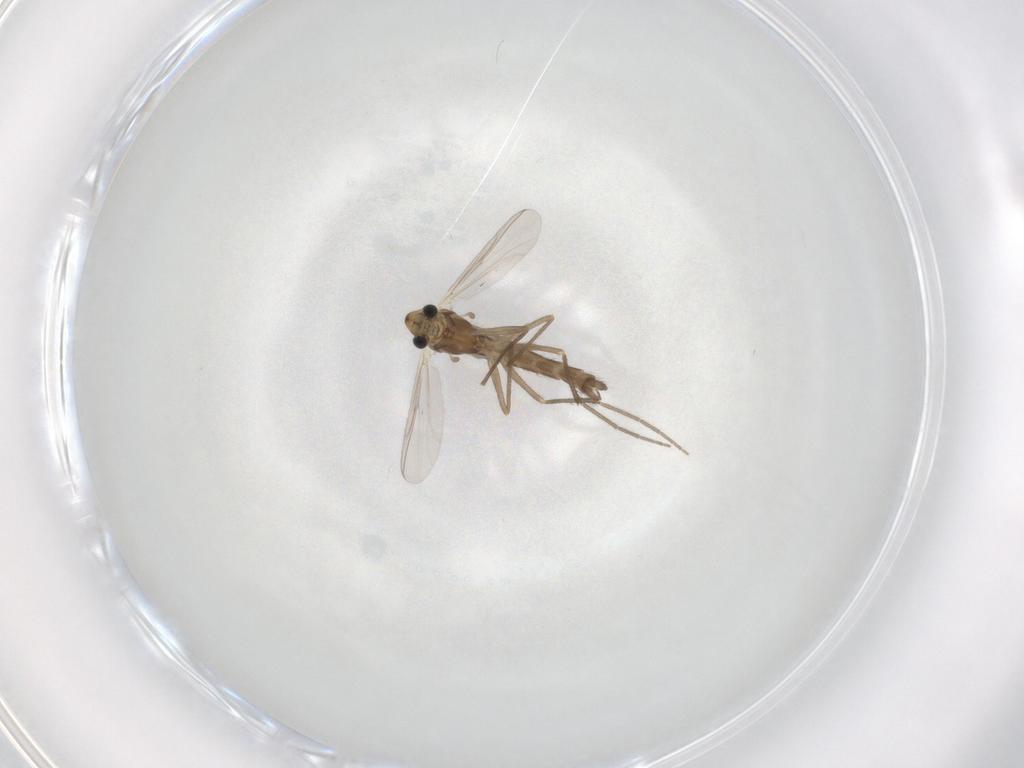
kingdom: Animalia
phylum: Arthropoda
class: Insecta
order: Diptera
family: Chironomidae
